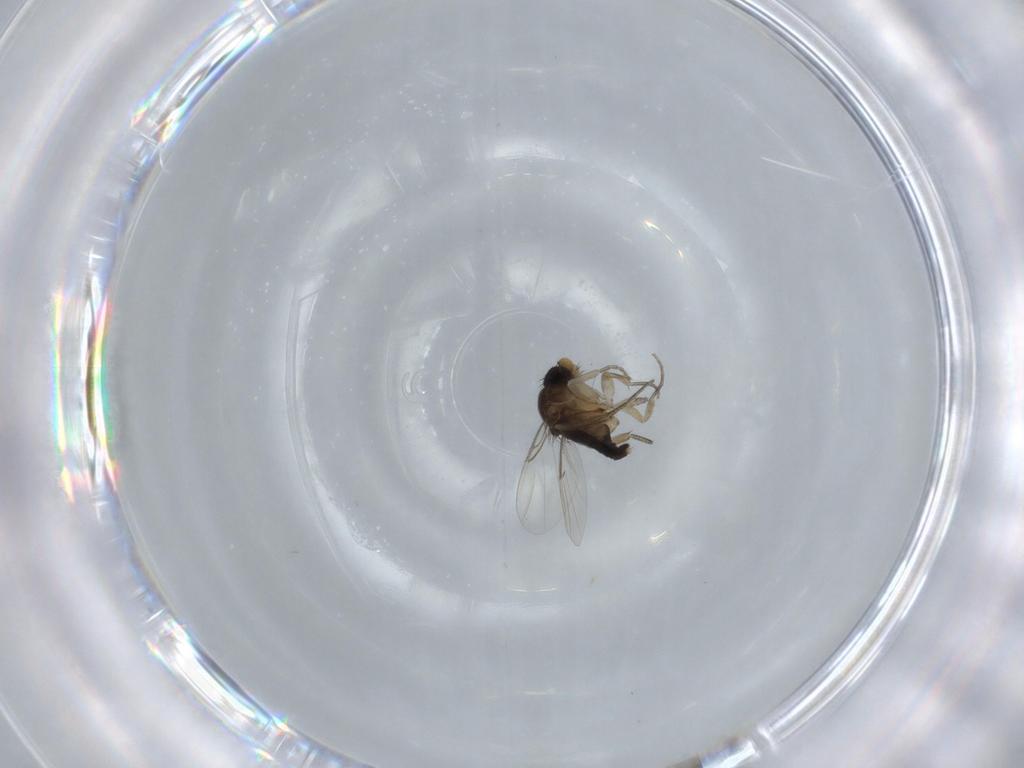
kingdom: Animalia
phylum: Arthropoda
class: Insecta
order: Diptera
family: Phoridae
